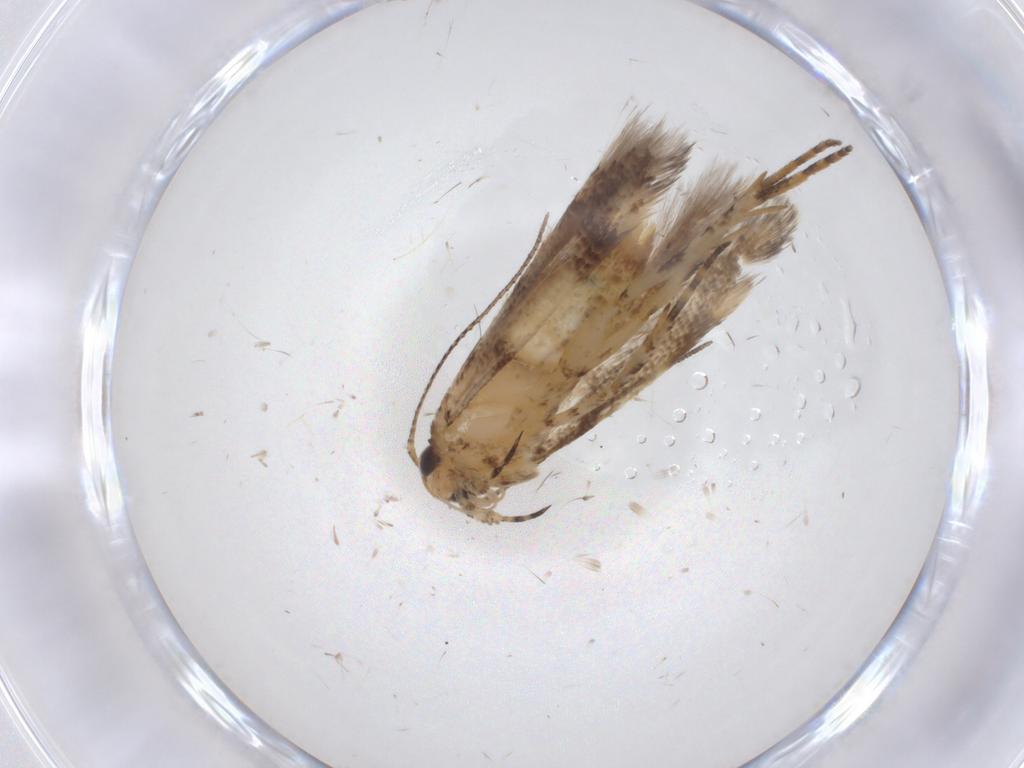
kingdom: Animalia
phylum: Arthropoda
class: Insecta
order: Lepidoptera
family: Gelechiidae
